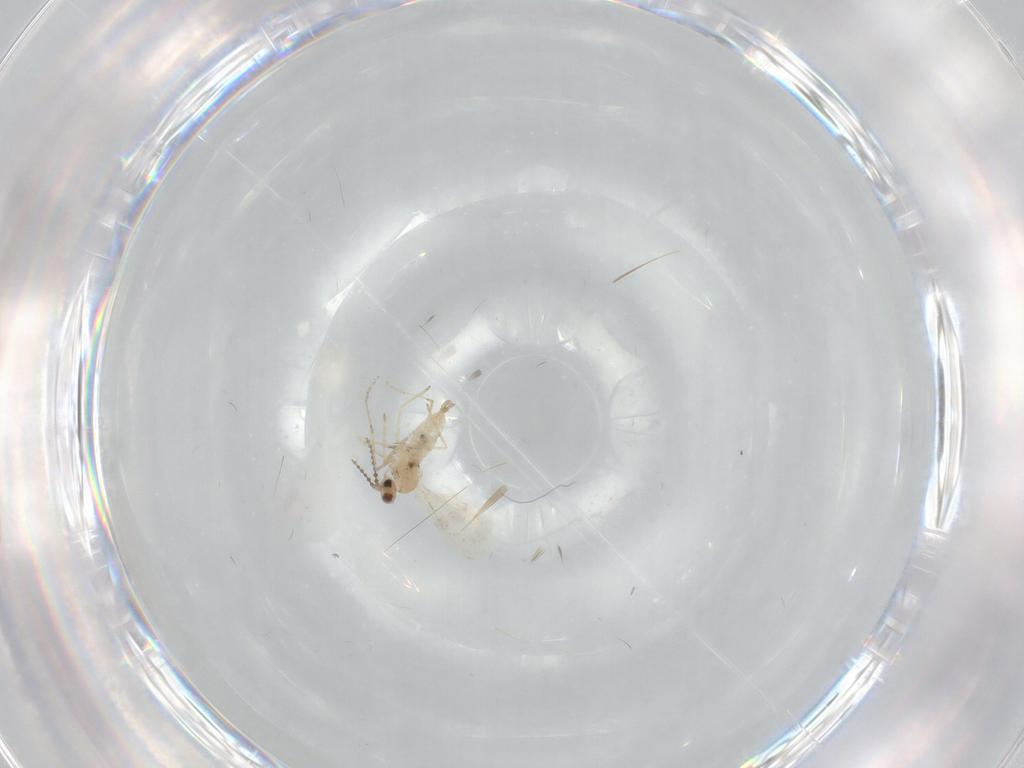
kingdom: Animalia
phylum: Arthropoda
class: Insecta
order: Diptera
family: Cecidomyiidae
